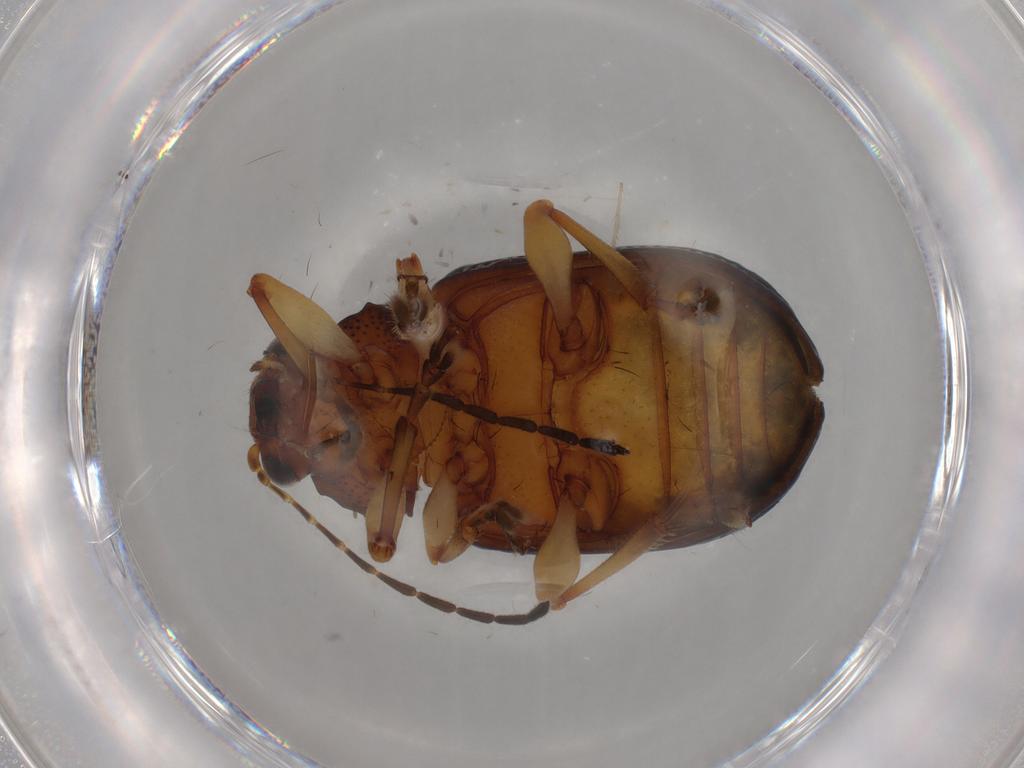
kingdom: Animalia
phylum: Arthropoda
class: Insecta
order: Coleoptera
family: Chrysomelidae
